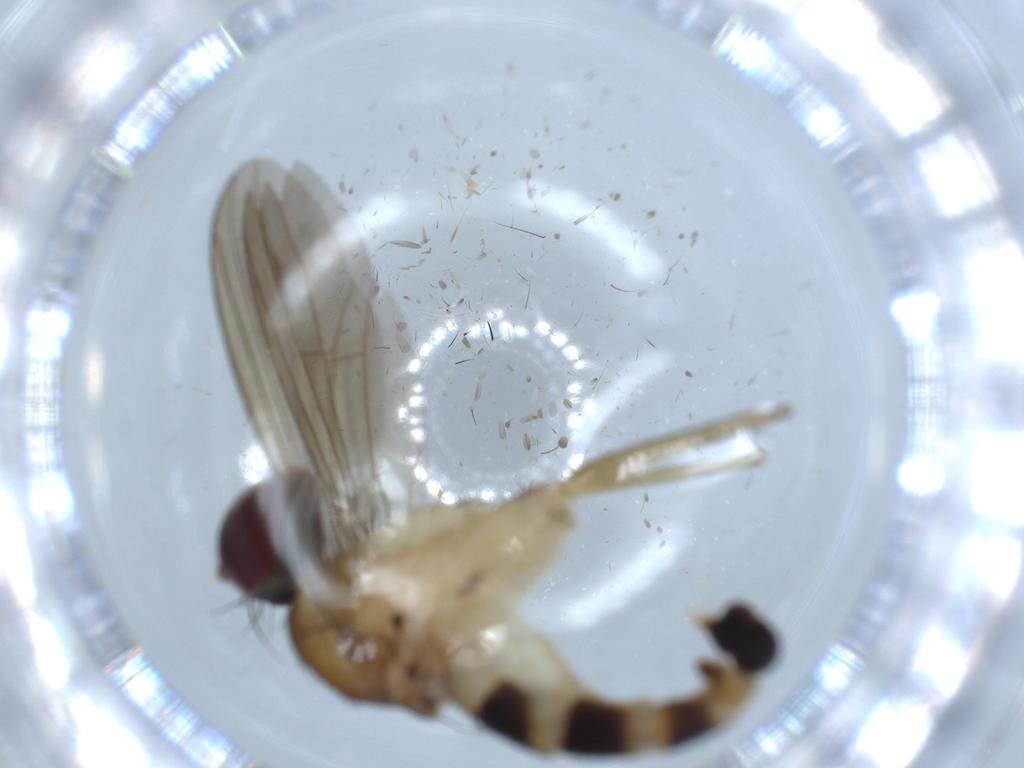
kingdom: Animalia
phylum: Arthropoda
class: Insecta
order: Diptera
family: Dolichopodidae
